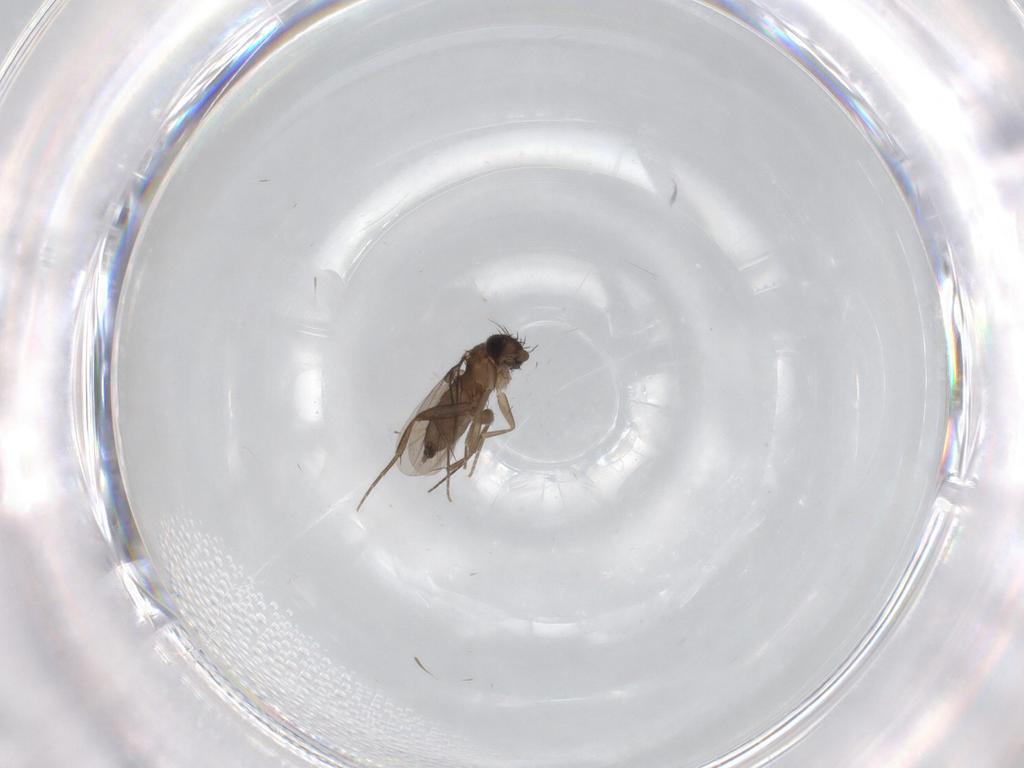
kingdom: Animalia
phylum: Arthropoda
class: Insecta
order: Diptera
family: Phoridae
